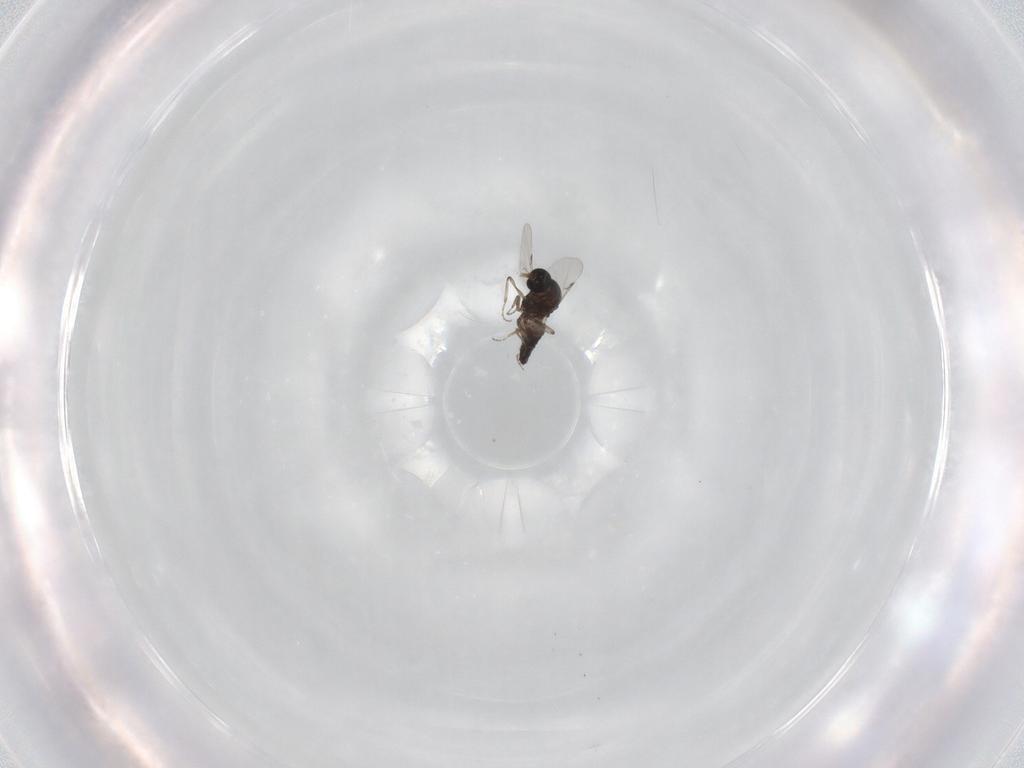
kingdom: Animalia
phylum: Arthropoda
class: Insecta
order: Diptera
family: Ceratopogonidae
